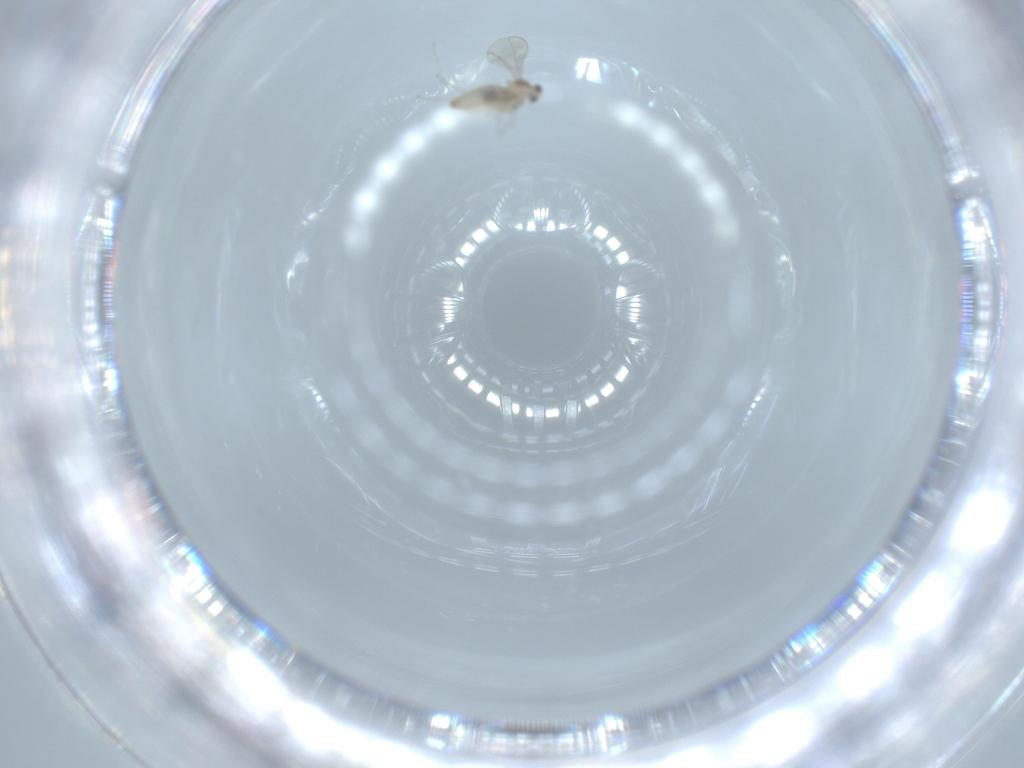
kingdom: Animalia
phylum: Arthropoda
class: Insecta
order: Diptera
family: Cecidomyiidae
